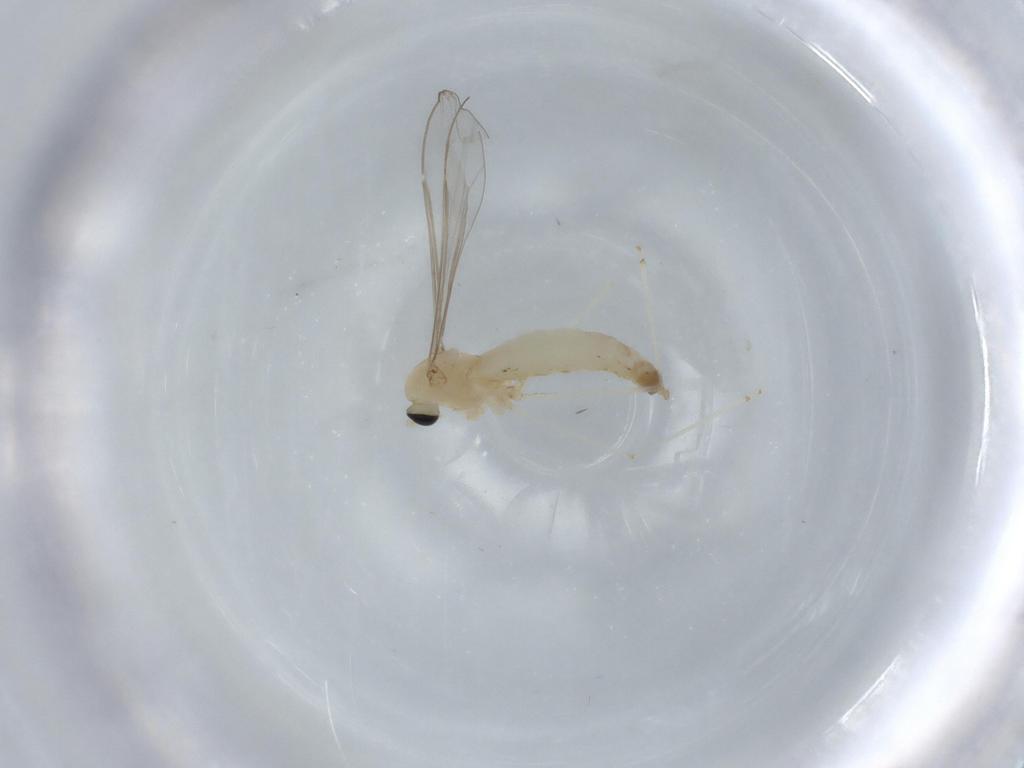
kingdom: Animalia
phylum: Arthropoda
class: Insecta
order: Diptera
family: Cecidomyiidae
